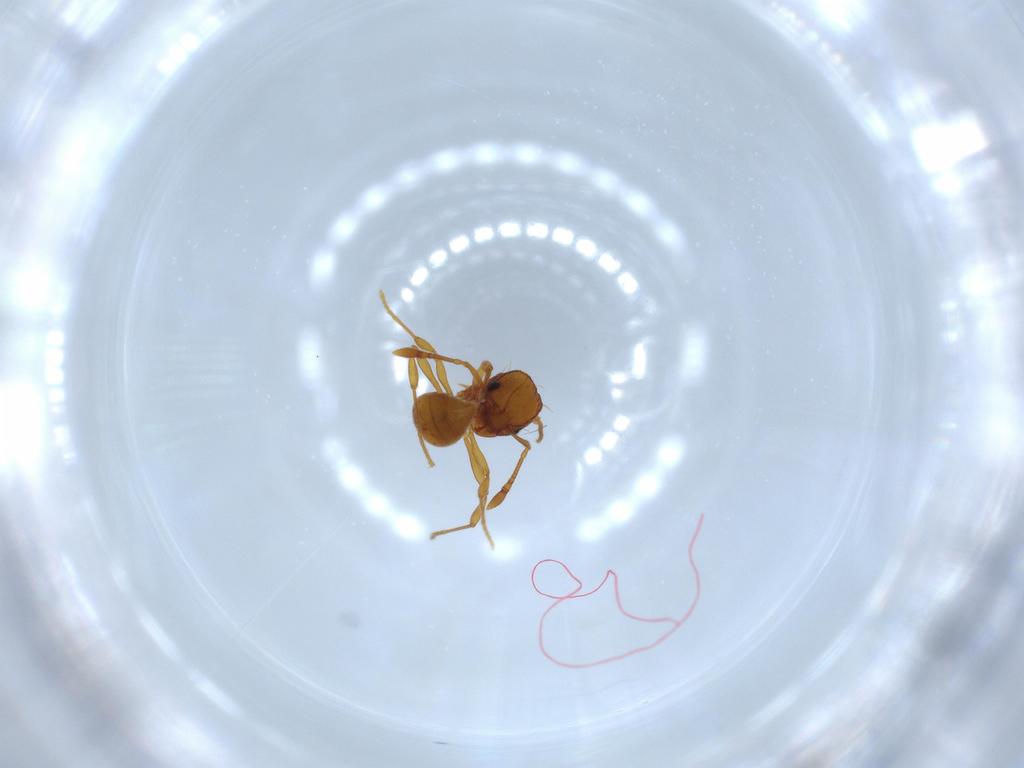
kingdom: Animalia
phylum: Arthropoda
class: Insecta
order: Hymenoptera
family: Formicidae
